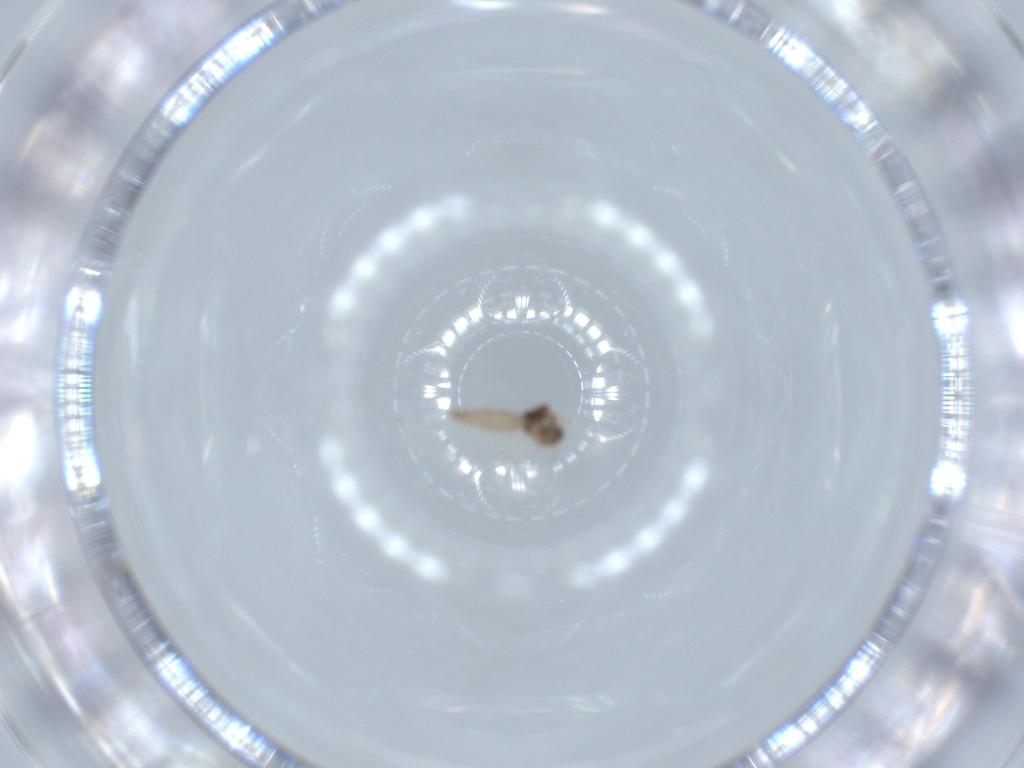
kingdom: Animalia
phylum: Arthropoda
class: Insecta
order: Diptera
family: Cecidomyiidae
